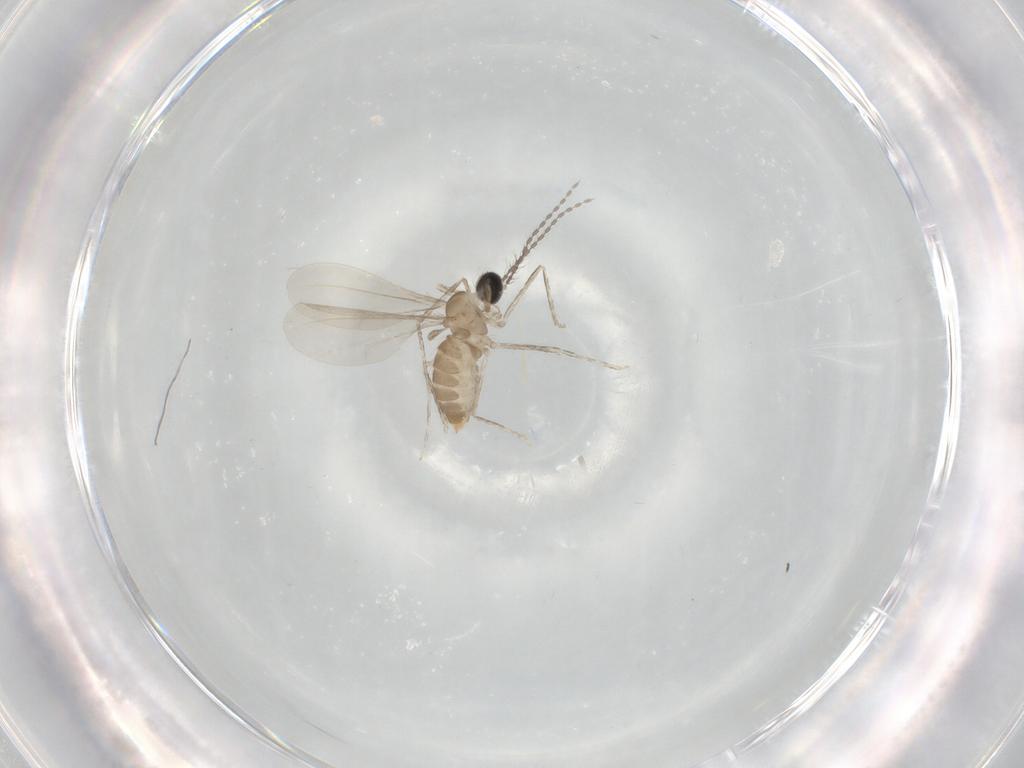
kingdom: Animalia
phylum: Arthropoda
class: Insecta
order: Diptera
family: Cecidomyiidae
